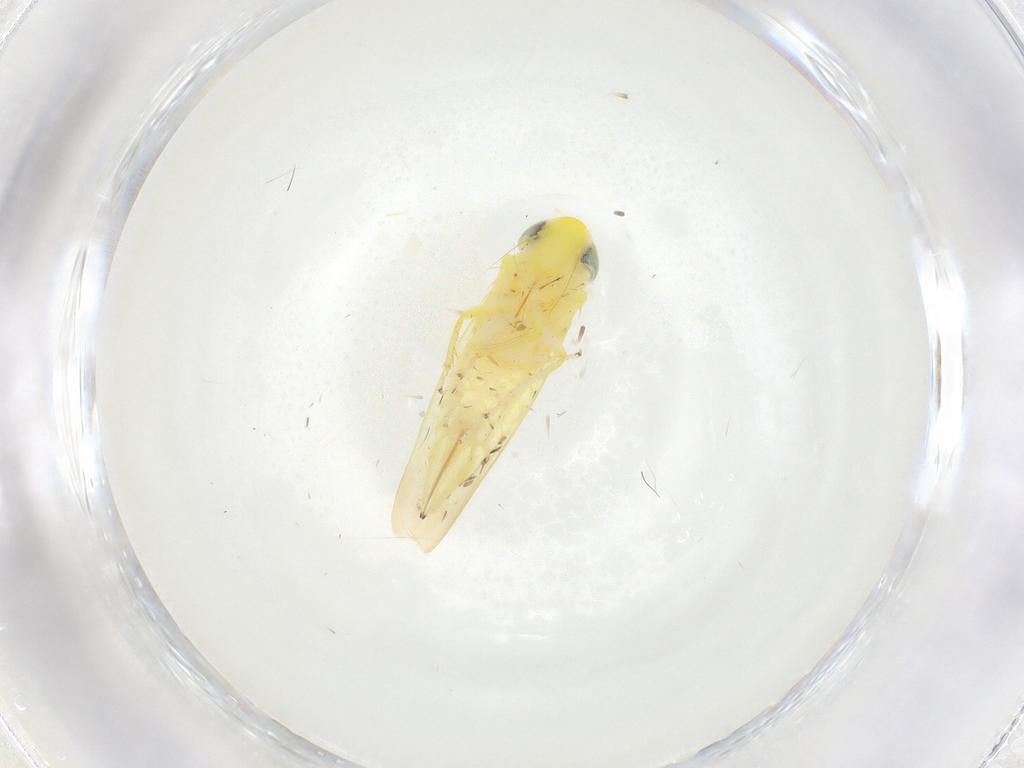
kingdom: Animalia
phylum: Arthropoda
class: Insecta
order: Hemiptera
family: Cicadellidae
